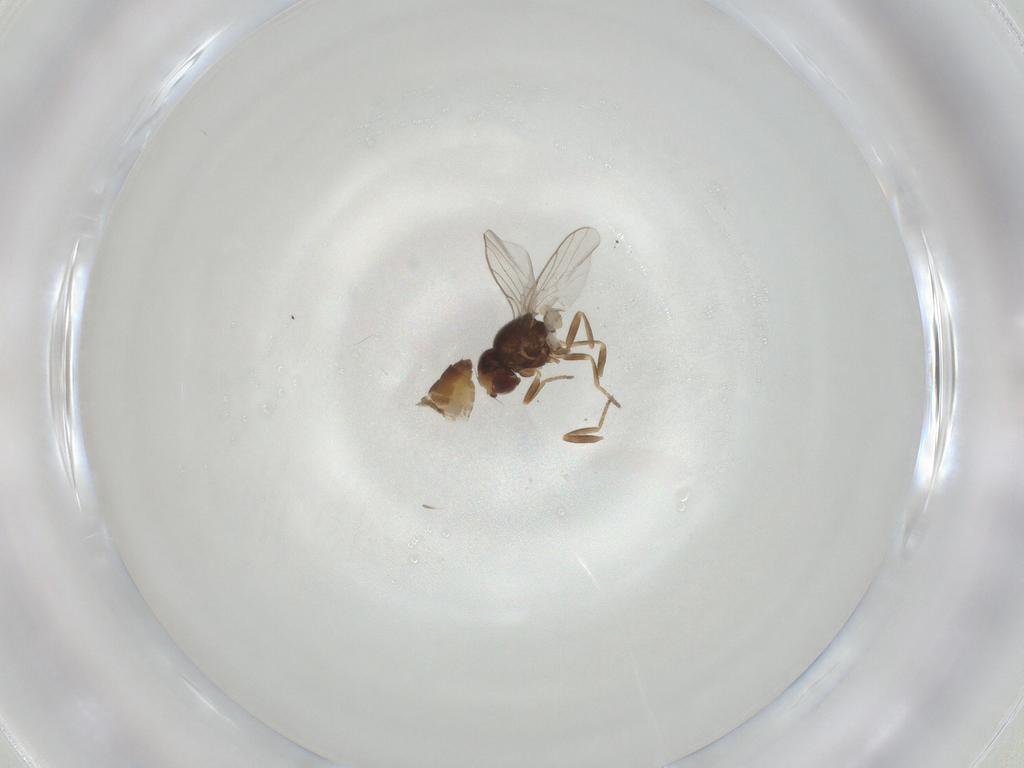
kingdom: Animalia
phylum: Arthropoda
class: Insecta
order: Diptera
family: Chloropidae
